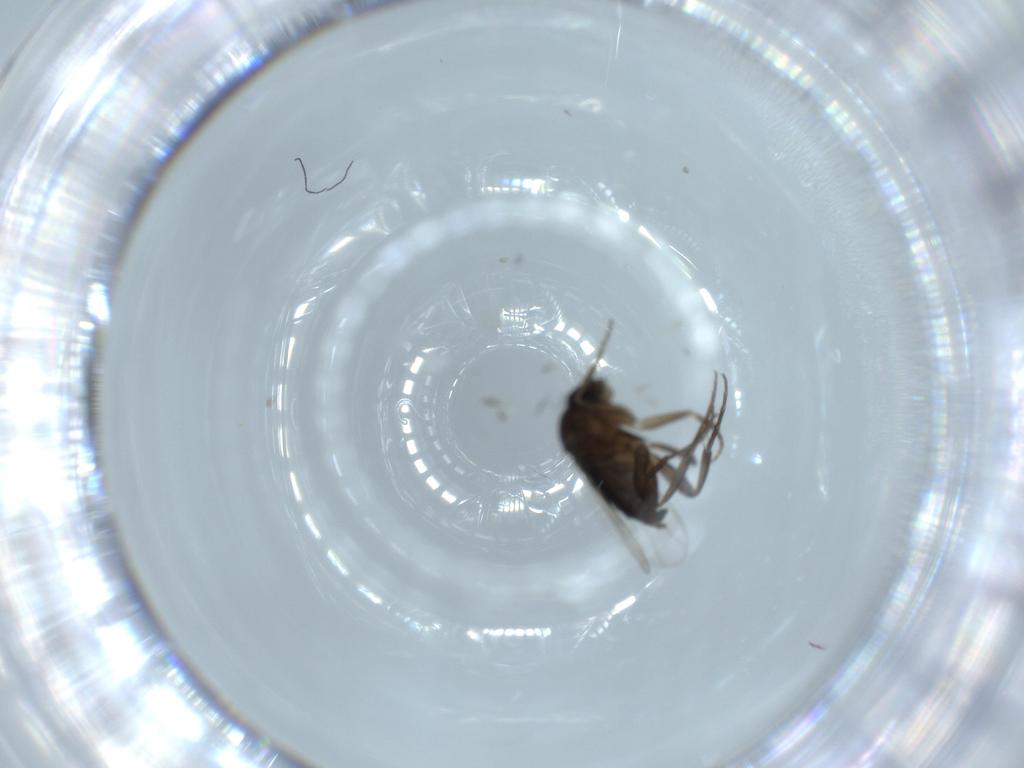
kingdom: Animalia
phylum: Arthropoda
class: Insecta
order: Diptera
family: Phoridae
